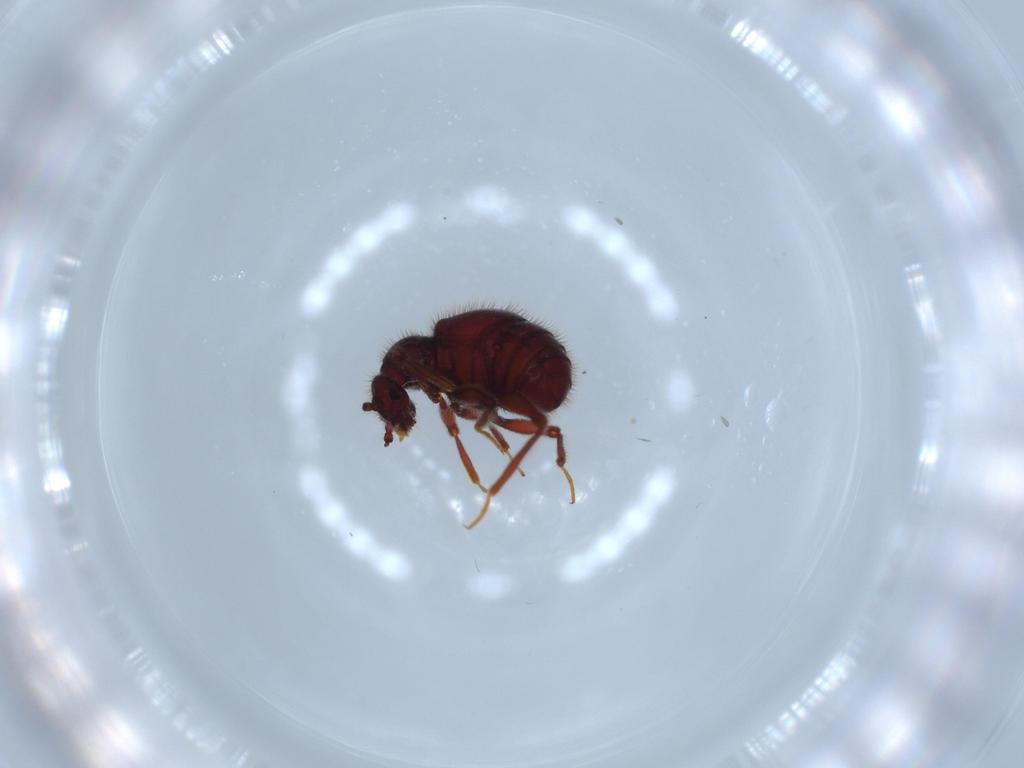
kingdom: Animalia
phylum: Arthropoda
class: Insecta
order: Coleoptera
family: Staphylinidae
